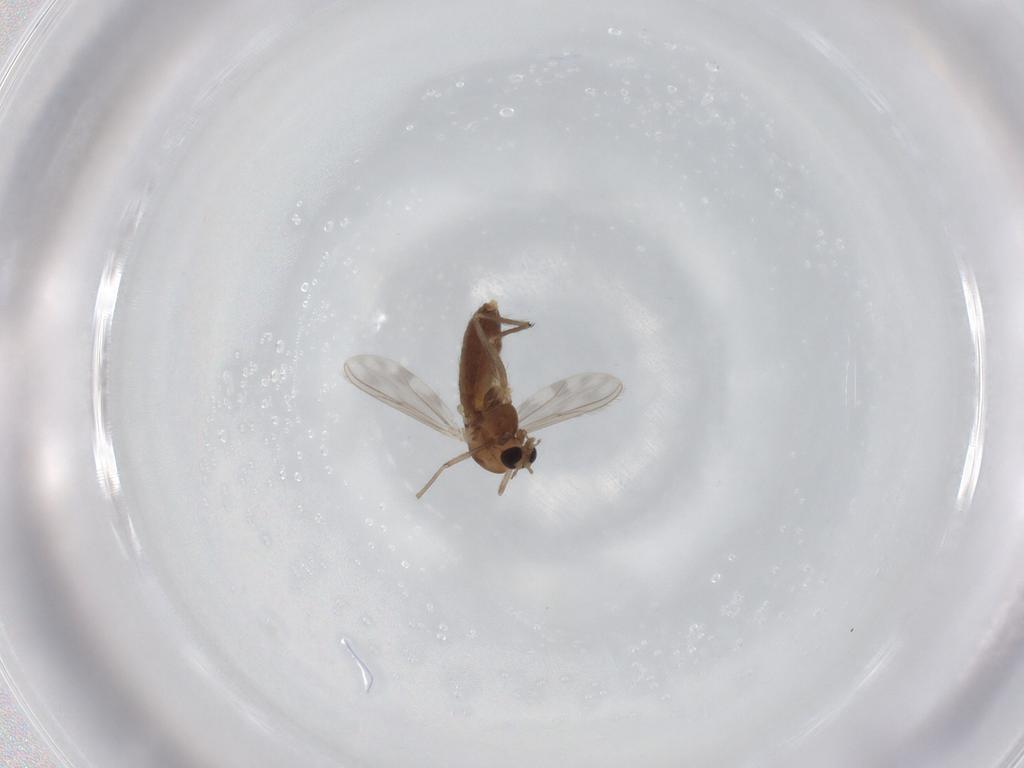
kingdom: Animalia
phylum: Arthropoda
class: Insecta
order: Diptera
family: Chironomidae
